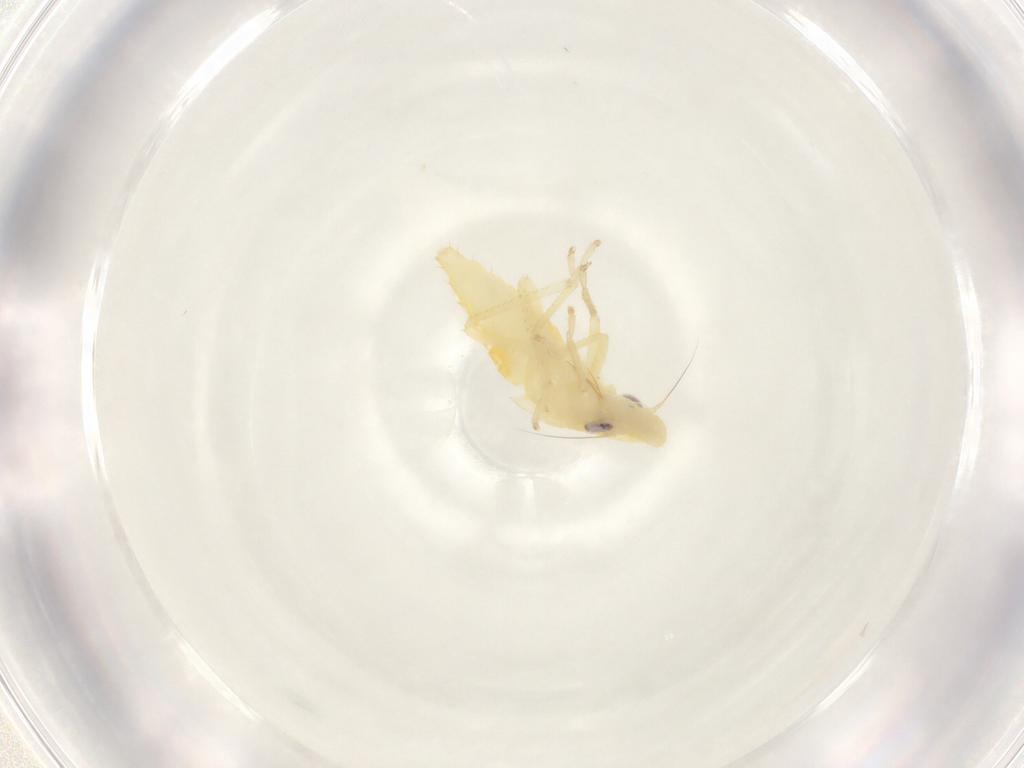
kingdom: Animalia
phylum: Arthropoda
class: Insecta
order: Hemiptera
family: Cicadellidae
